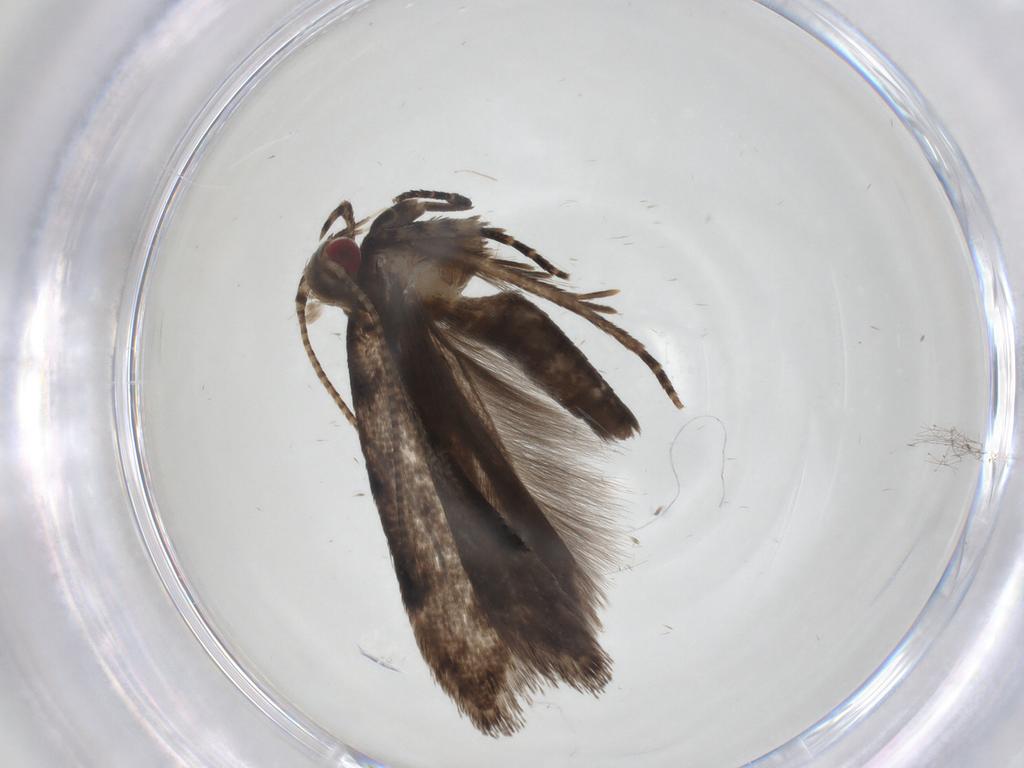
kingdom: Animalia
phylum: Arthropoda
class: Insecta
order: Lepidoptera
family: Gelechiidae
